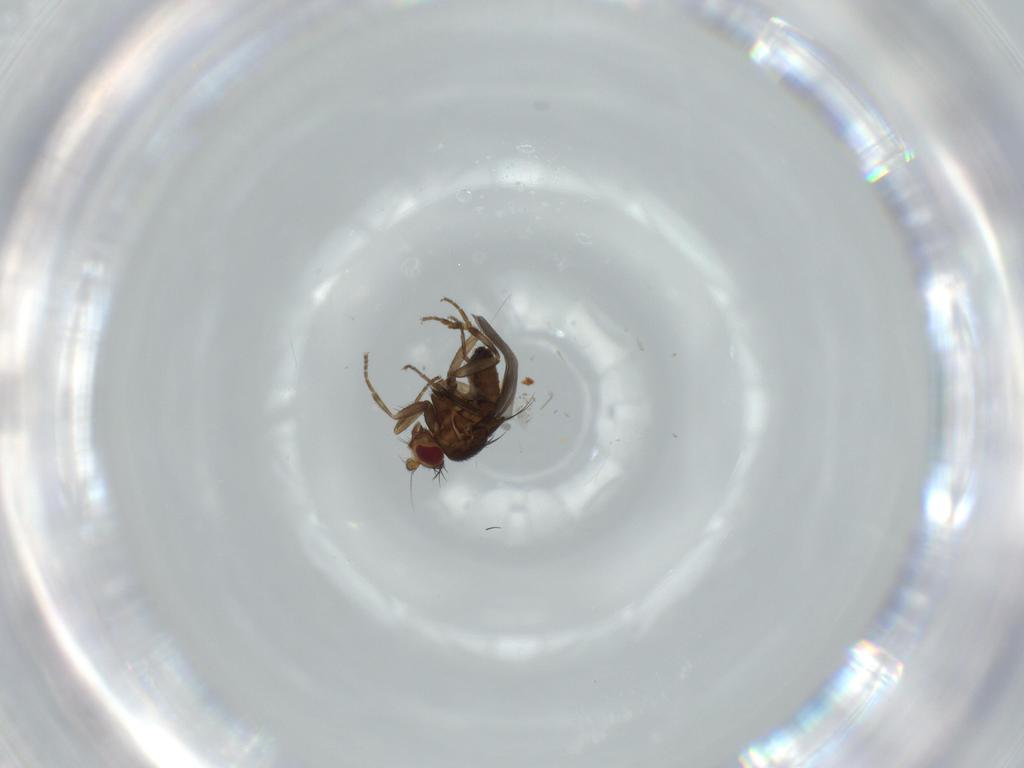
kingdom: Animalia
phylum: Arthropoda
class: Insecta
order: Diptera
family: Sphaeroceridae
